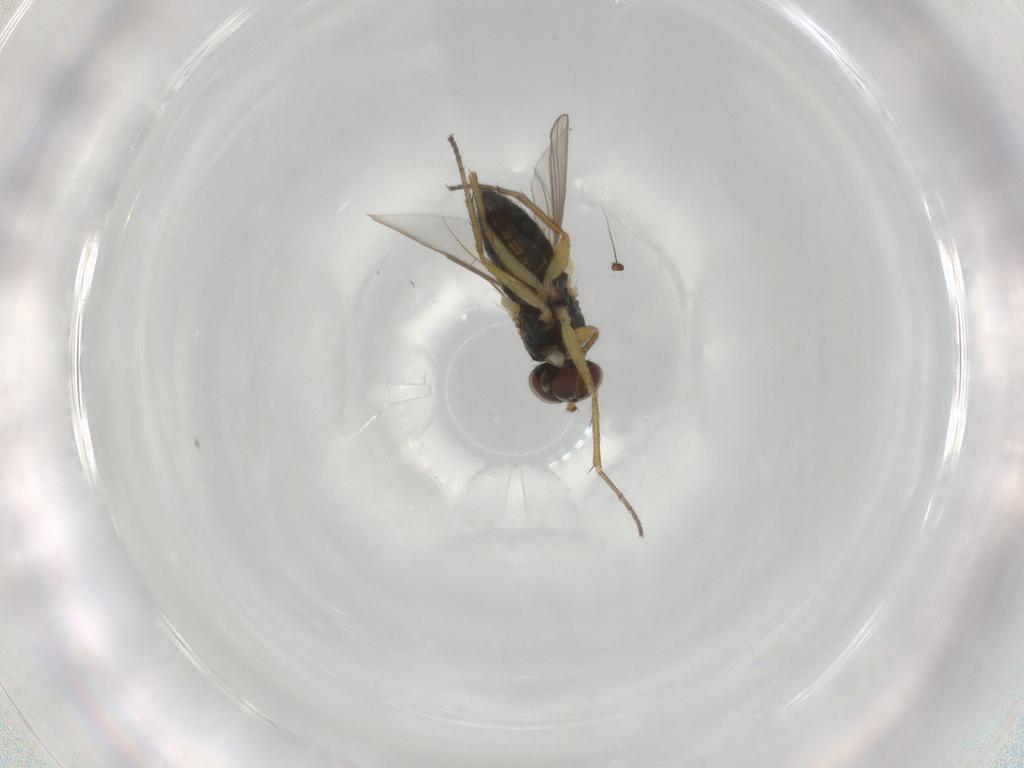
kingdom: Animalia
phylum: Arthropoda
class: Insecta
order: Diptera
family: Dolichopodidae
